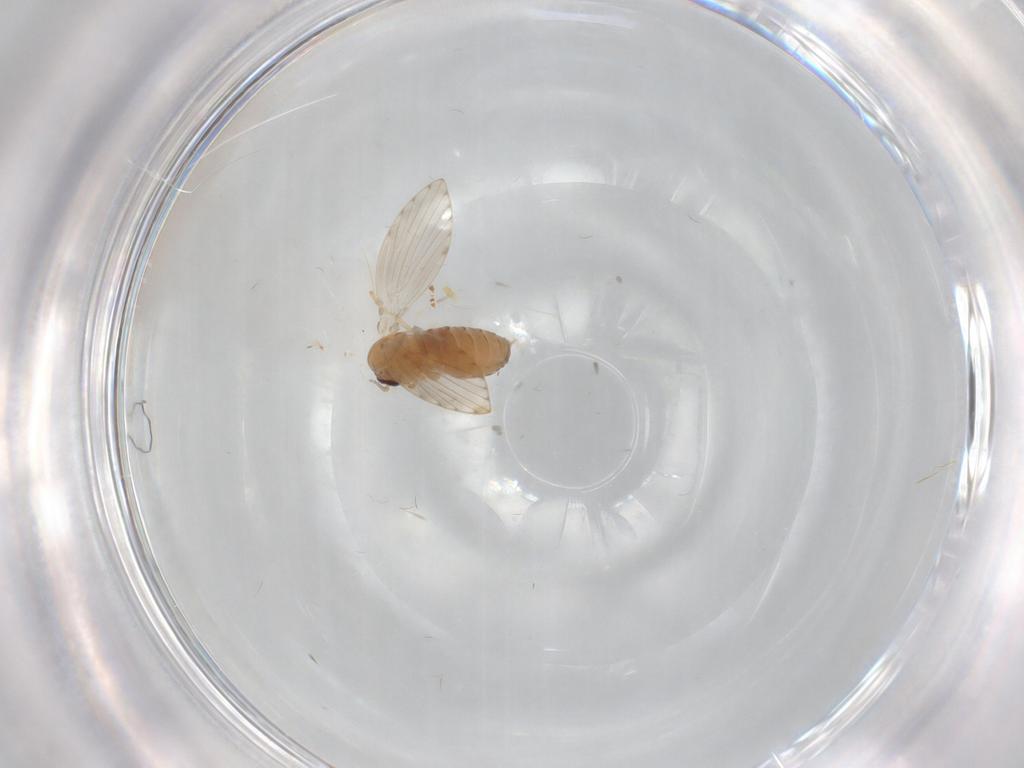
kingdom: Animalia
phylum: Arthropoda
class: Insecta
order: Diptera
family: Psychodidae
